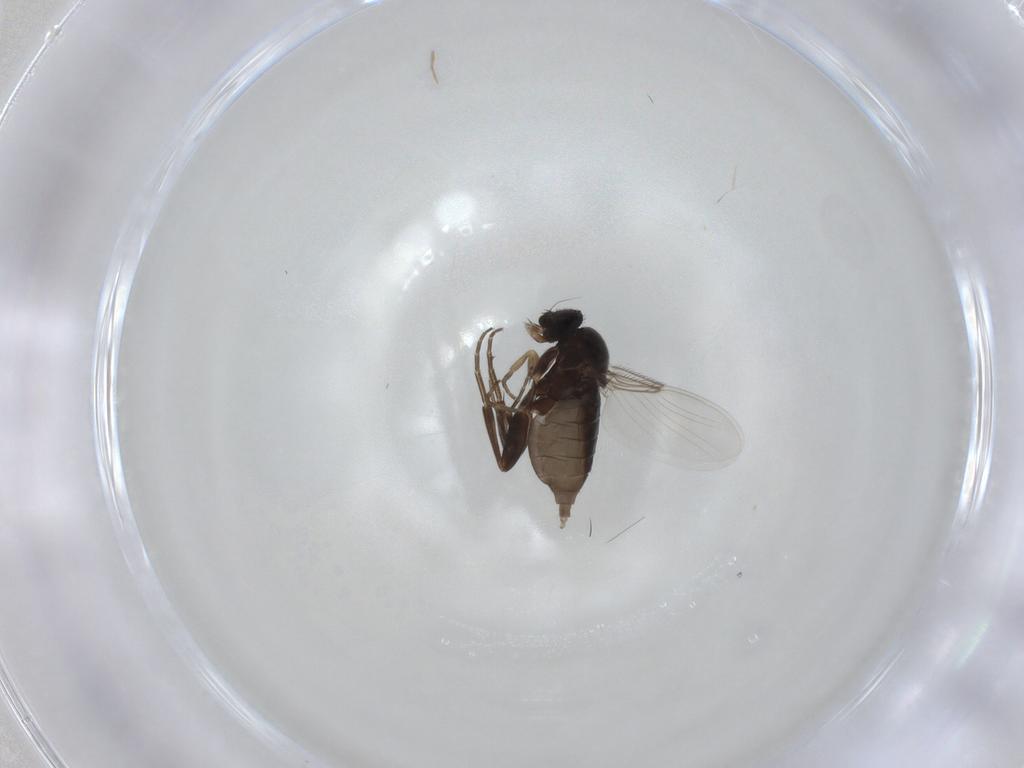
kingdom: Animalia
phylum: Arthropoda
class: Insecta
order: Diptera
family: Phoridae
